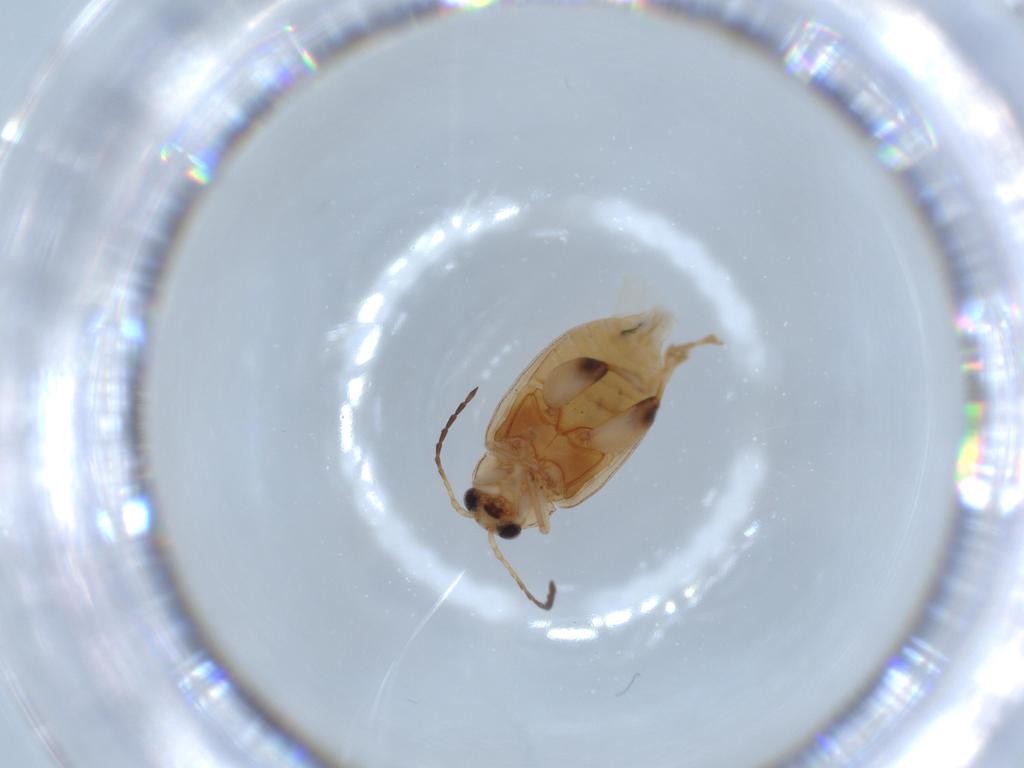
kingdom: Animalia
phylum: Arthropoda
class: Insecta
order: Coleoptera
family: Chrysomelidae
